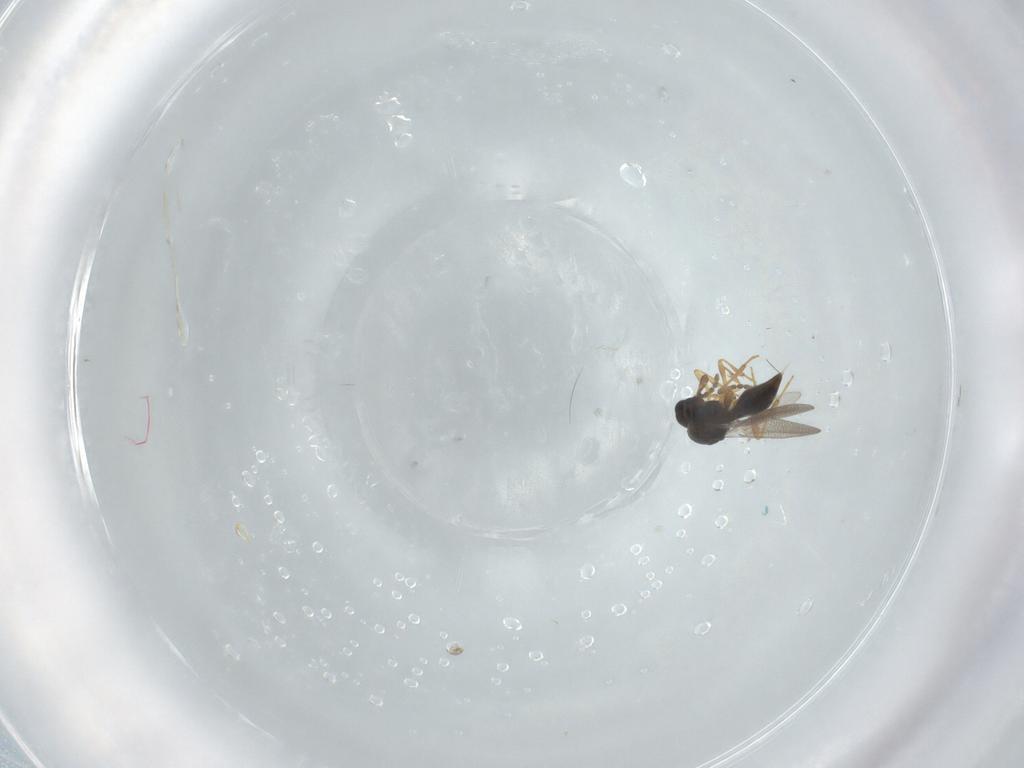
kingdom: Animalia
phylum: Arthropoda
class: Insecta
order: Diptera
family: Mythicomyiidae
